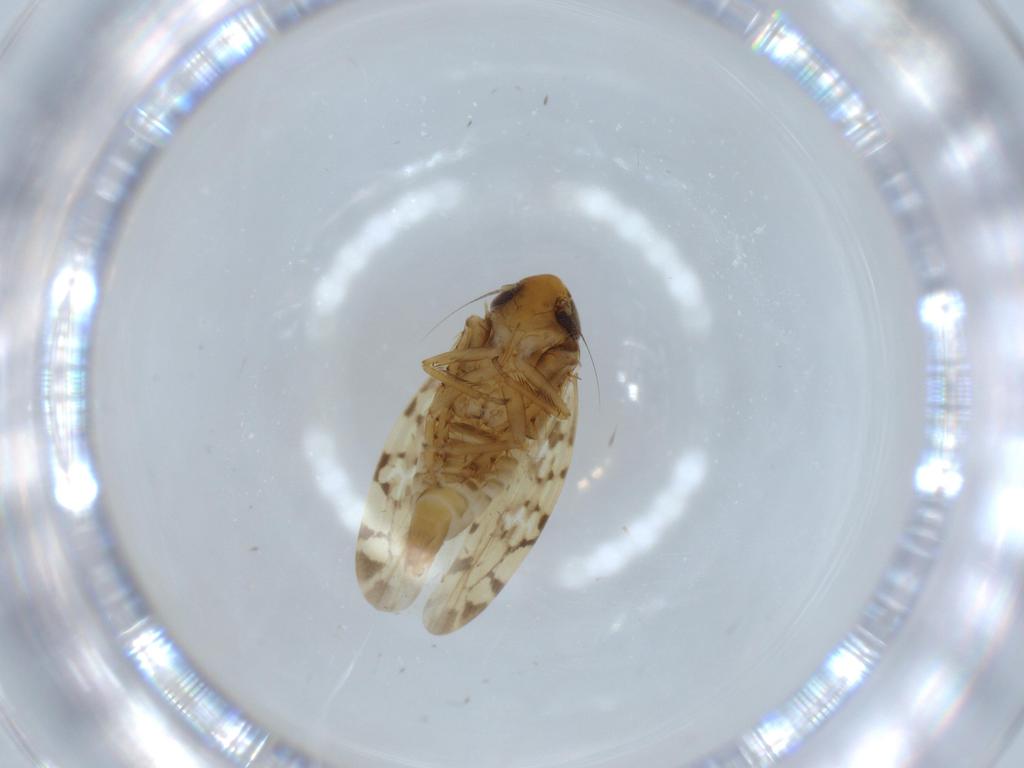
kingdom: Animalia
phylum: Arthropoda
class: Insecta
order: Hemiptera
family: Cicadellidae
